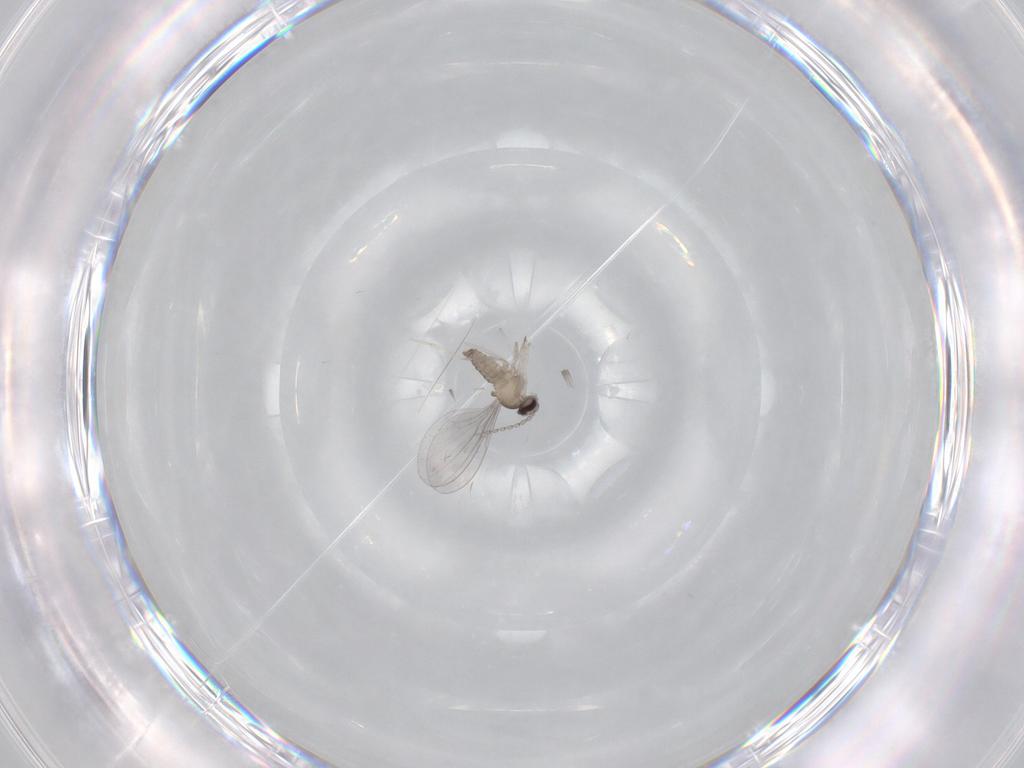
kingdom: Animalia
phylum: Arthropoda
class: Insecta
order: Diptera
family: Cecidomyiidae
